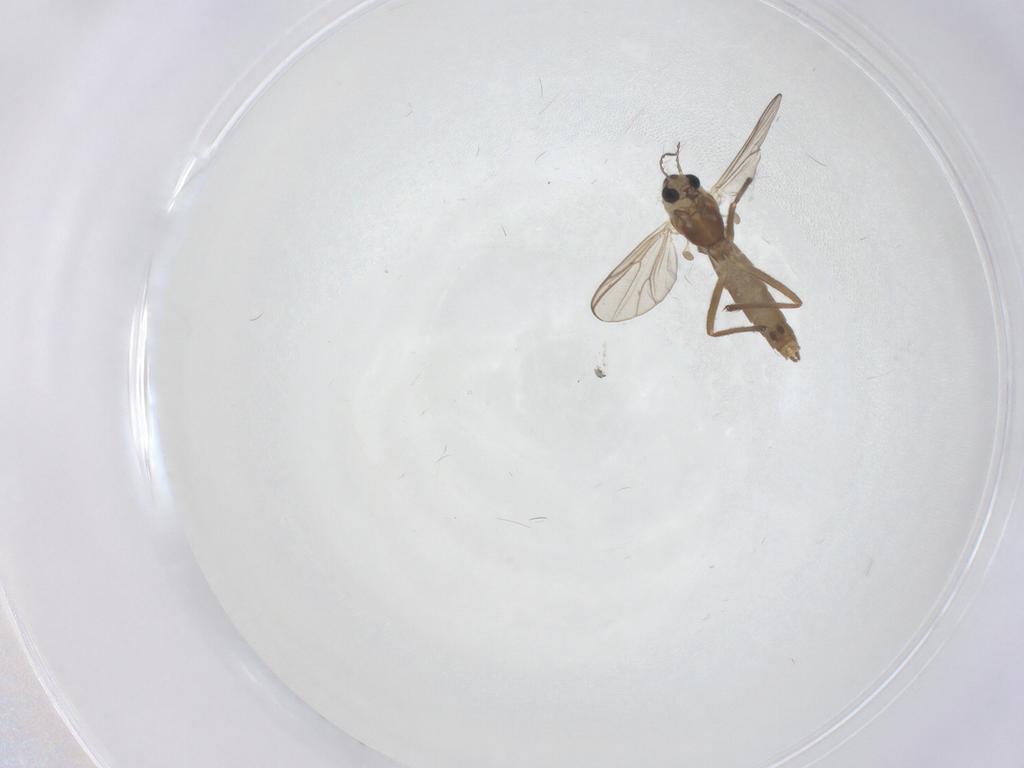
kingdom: Animalia
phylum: Arthropoda
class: Insecta
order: Diptera
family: Chironomidae
